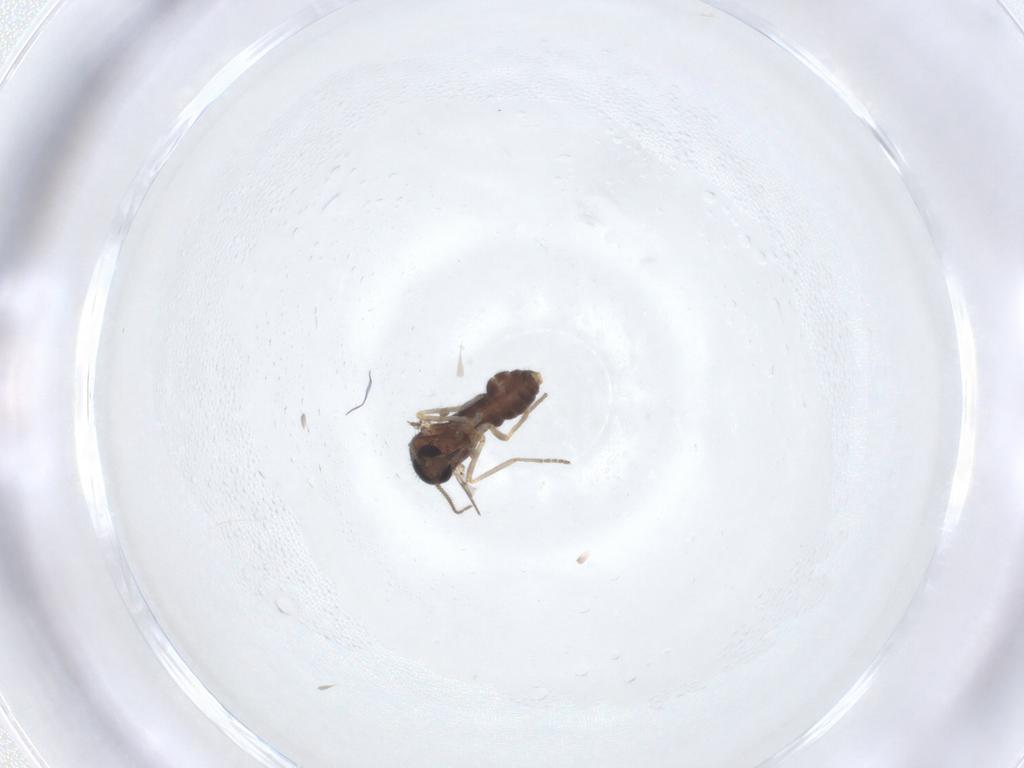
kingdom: Animalia
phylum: Arthropoda
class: Insecta
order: Diptera
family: Ceratopogonidae
